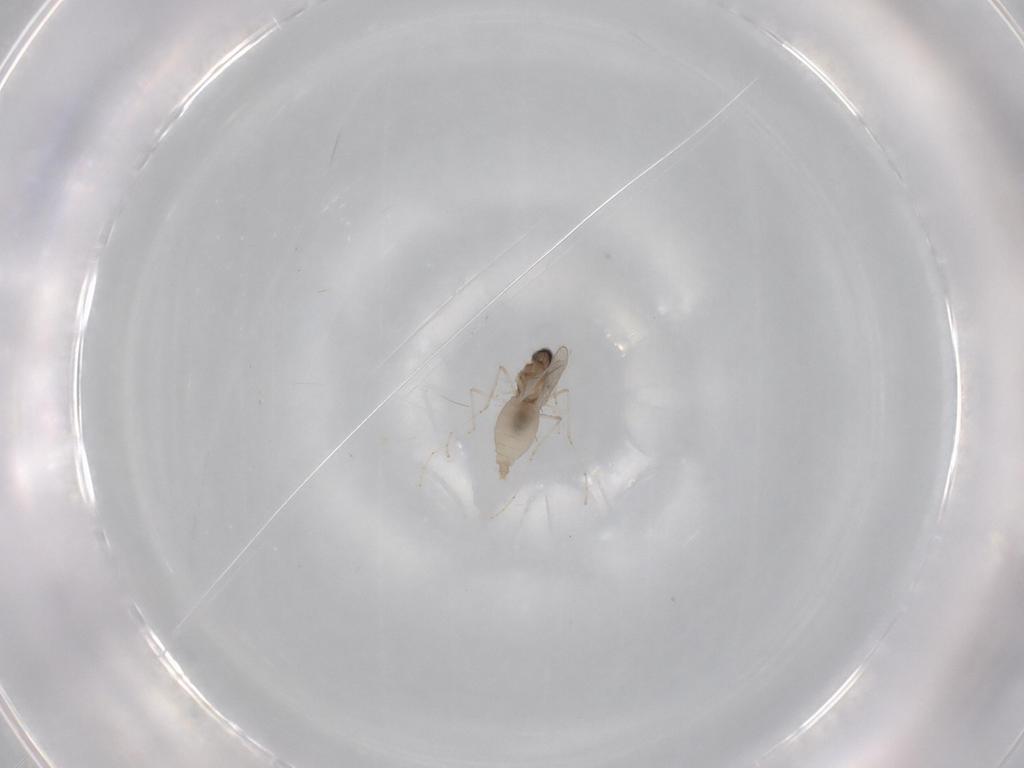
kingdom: Animalia
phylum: Arthropoda
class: Insecta
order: Diptera
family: Cecidomyiidae
